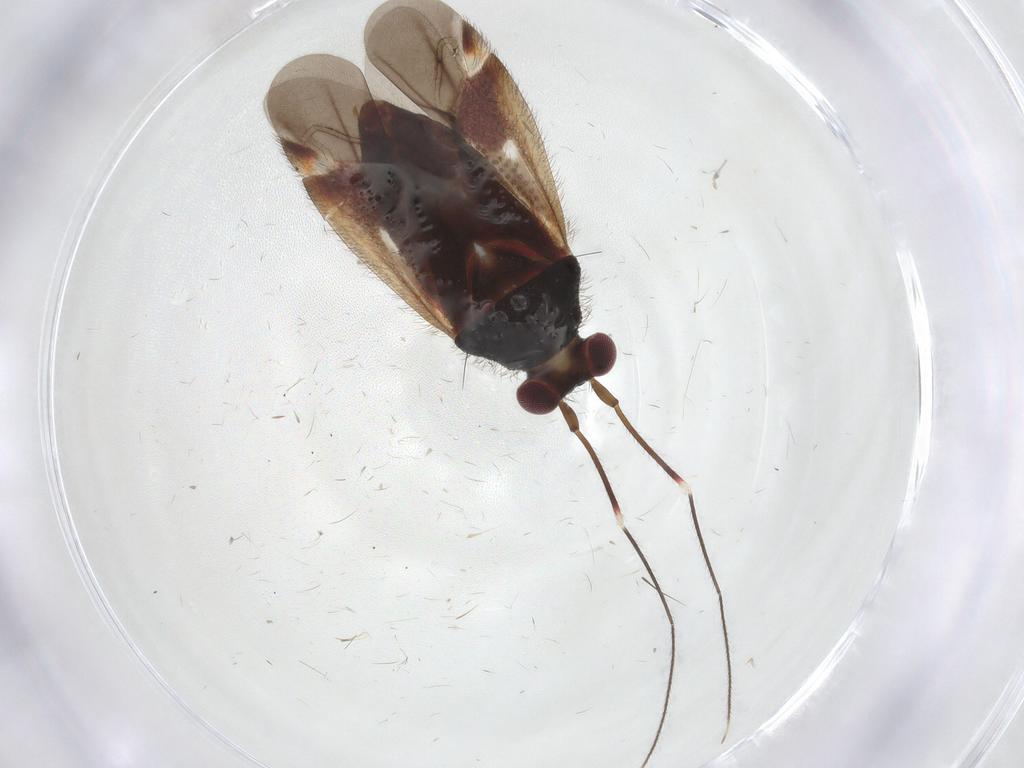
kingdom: Animalia
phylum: Arthropoda
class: Insecta
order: Hemiptera
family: Miridae
